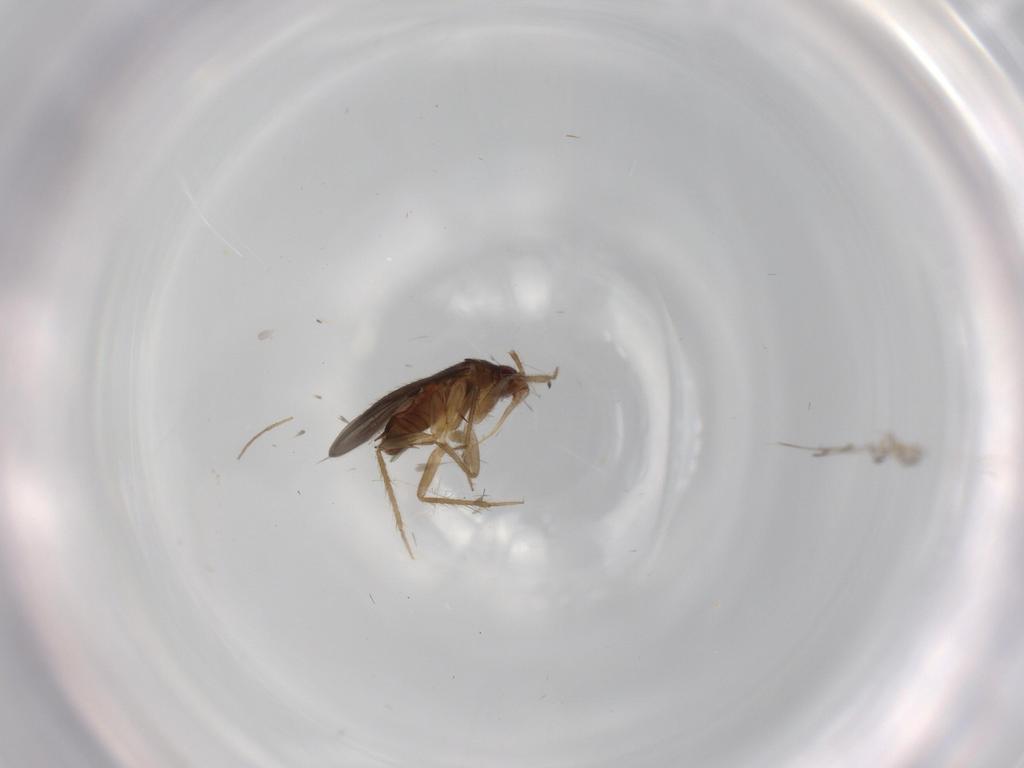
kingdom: Animalia
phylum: Arthropoda
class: Insecta
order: Hemiptera
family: Ceratocombidae
